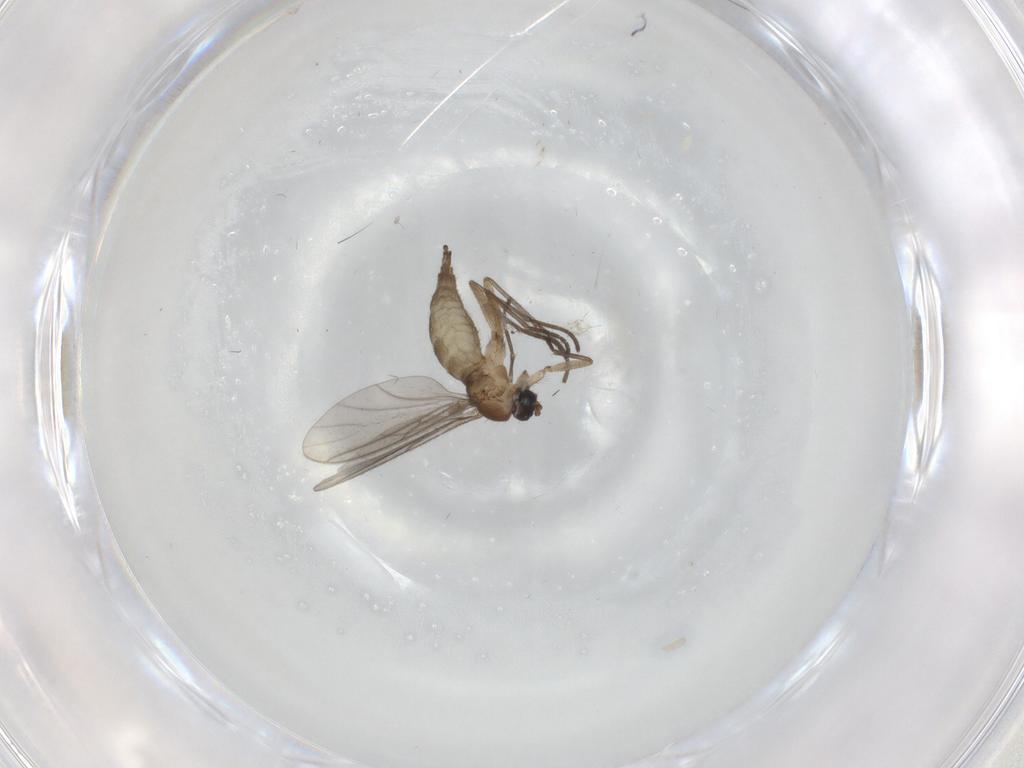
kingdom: Animalia
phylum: Arthropoda
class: Insecta
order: Diptera
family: Sciaridae
